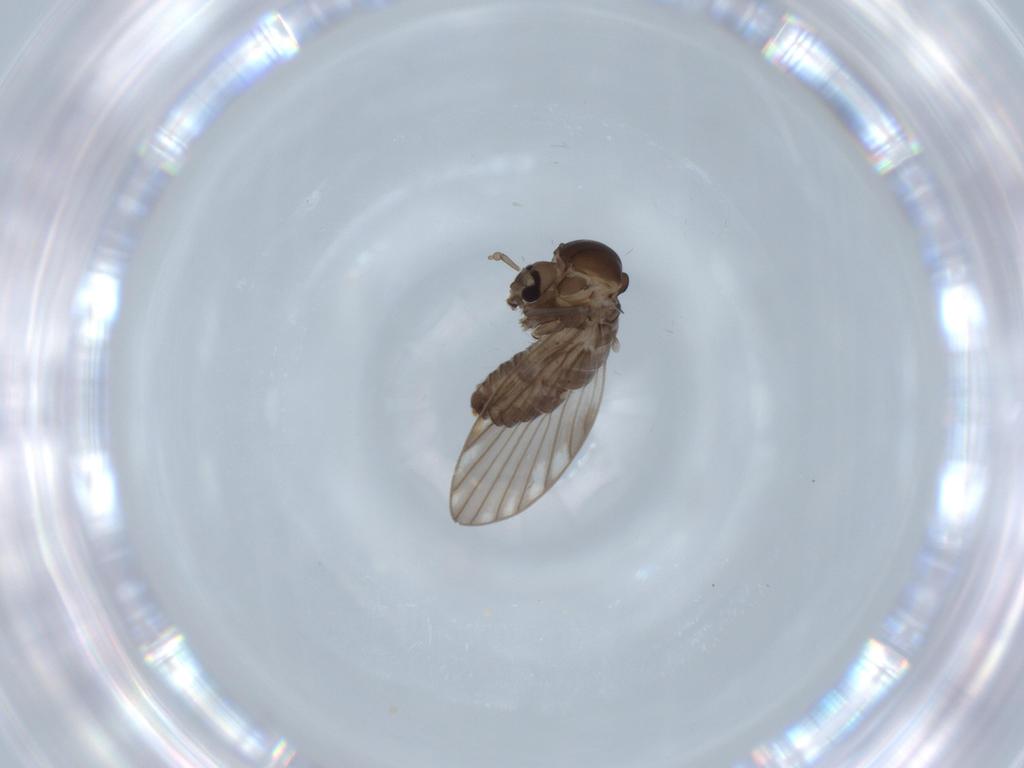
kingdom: Animalia
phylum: Arthropoda
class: Insecta
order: Diptera
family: Psychodidae
